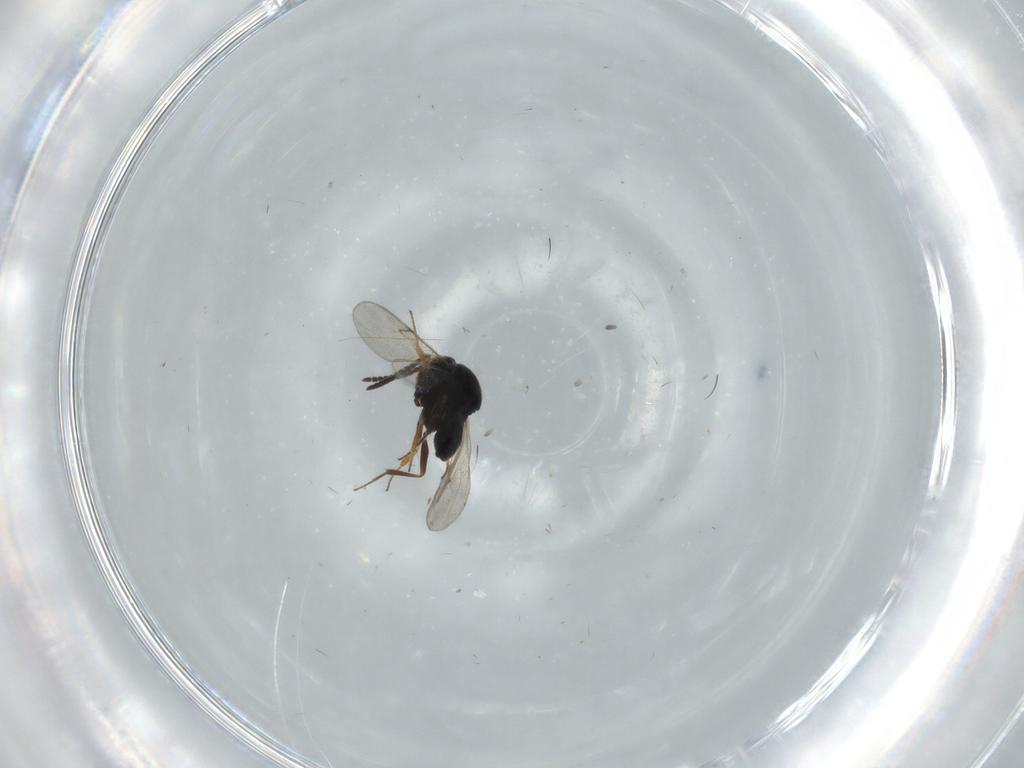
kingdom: Animalia
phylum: Arthropoda
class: Insecta
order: Hymenoptera
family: Scelionidae
